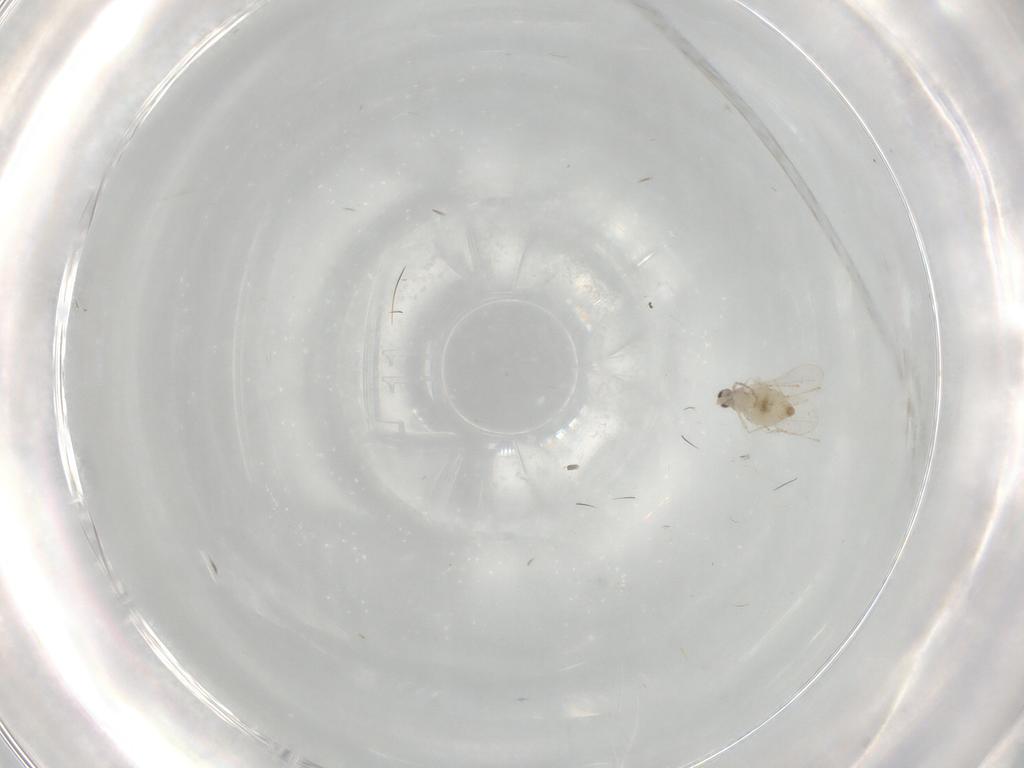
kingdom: Animalia
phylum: Arthropoda
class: Insecta
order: Diptera
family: Cecidomyiidae
